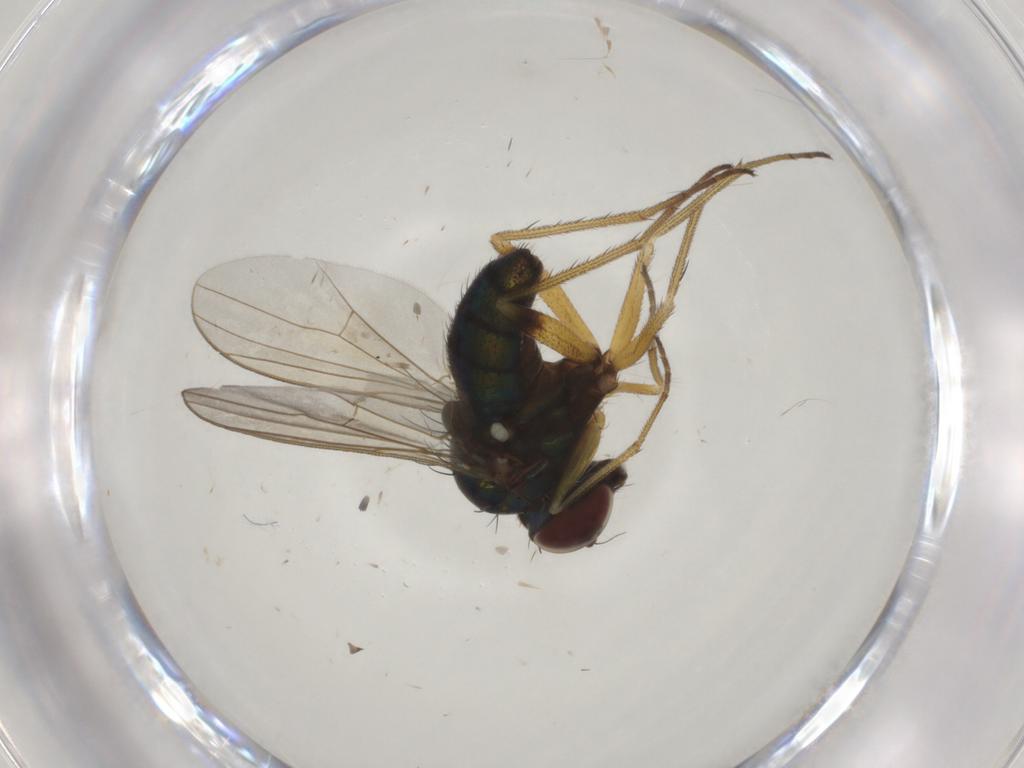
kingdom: Animalia
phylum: Arthropoda
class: Insecta
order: Diptera
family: Dolichopodidae
